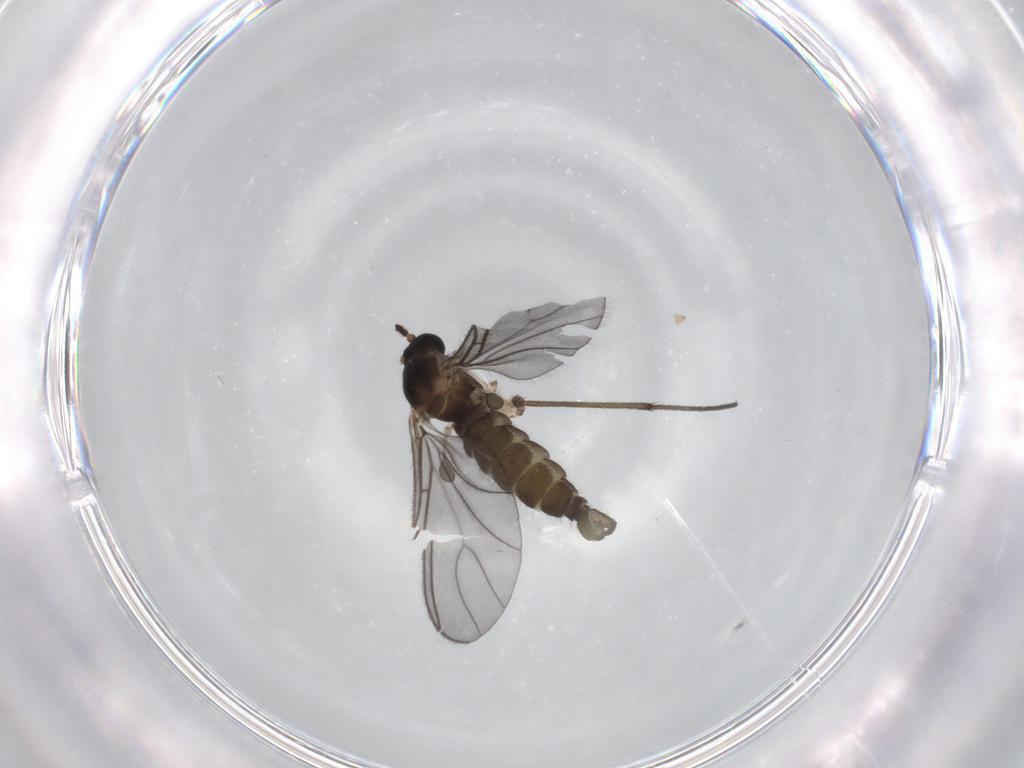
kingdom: Animalia
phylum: Arthropoda
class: Insecta
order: Diptera
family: Sciaridae
